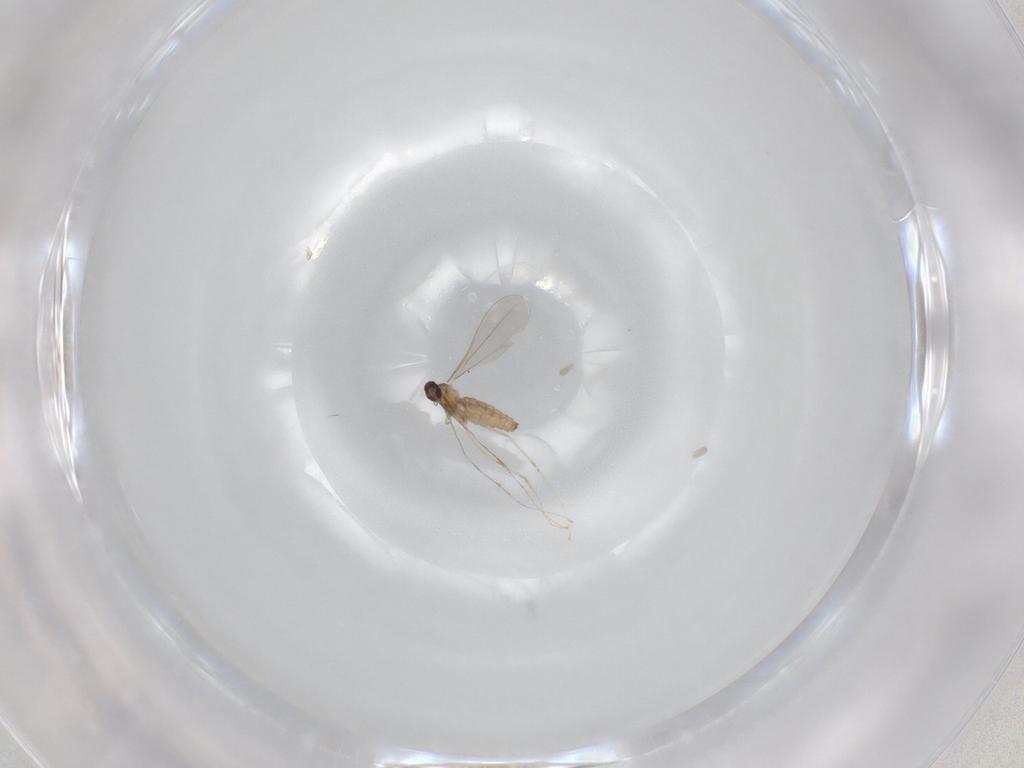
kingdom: Animalia
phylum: Arthropoda
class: Insecta
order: Diptera
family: Cecidomyiidae
